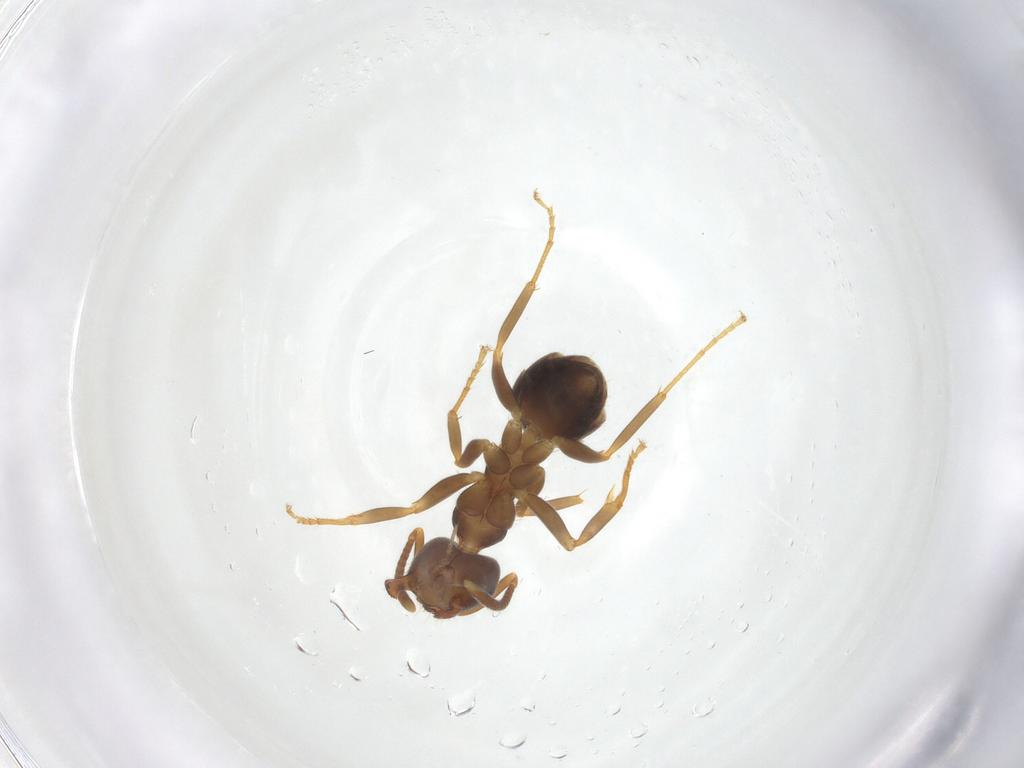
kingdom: Animalia
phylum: Arthropoda
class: Insecta
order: Hymenoptera
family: Formicidae
